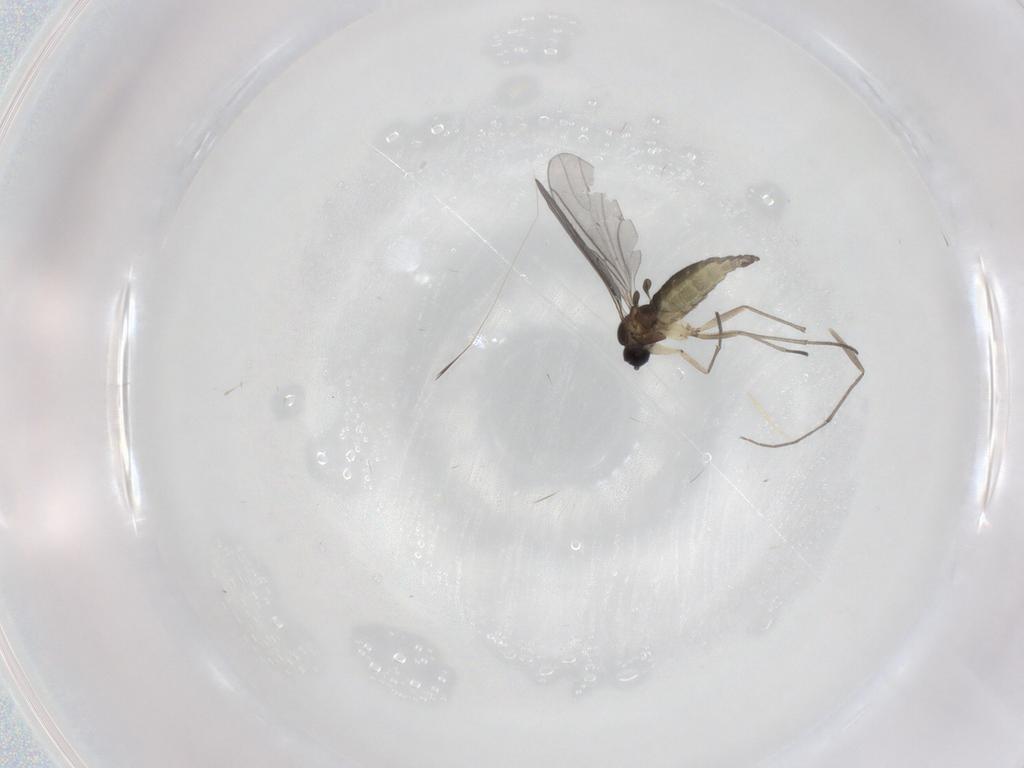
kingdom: Animalia
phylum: Arthropoda
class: Insecta
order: Diptera
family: Sciaridae
